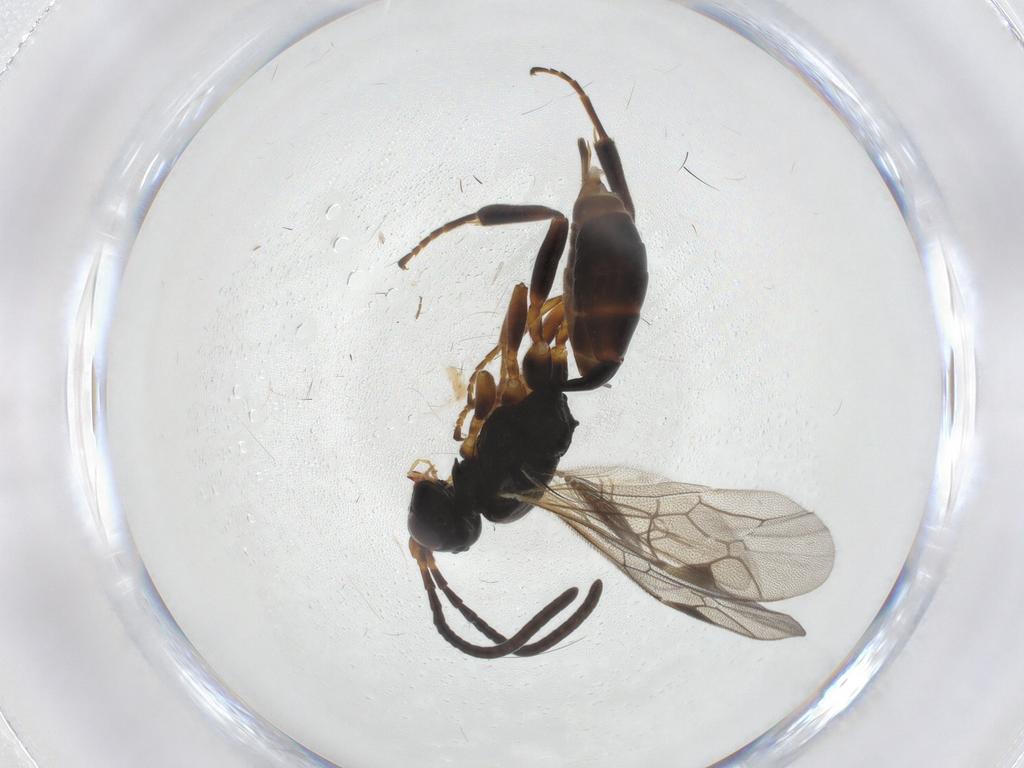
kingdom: Animalia
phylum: Arthropoda
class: Insecta
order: Hymenoptera
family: Ichneumonidae
